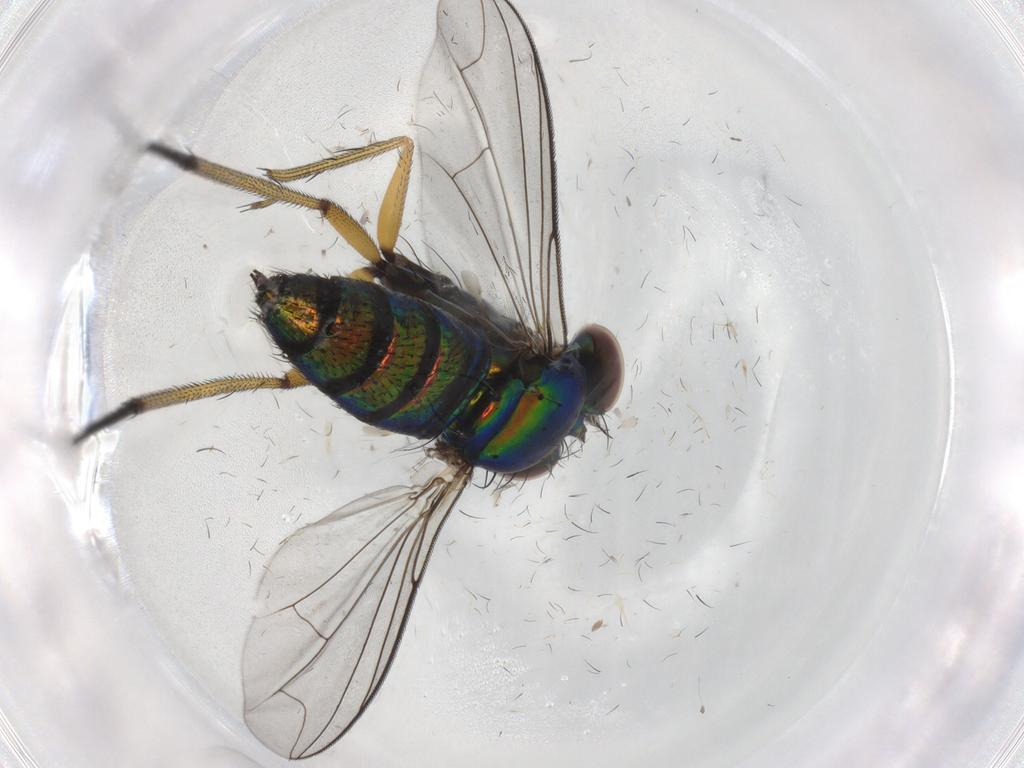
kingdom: Animalia
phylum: Arthropoda
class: Insecta
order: Diptera
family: Dolichopodidae
